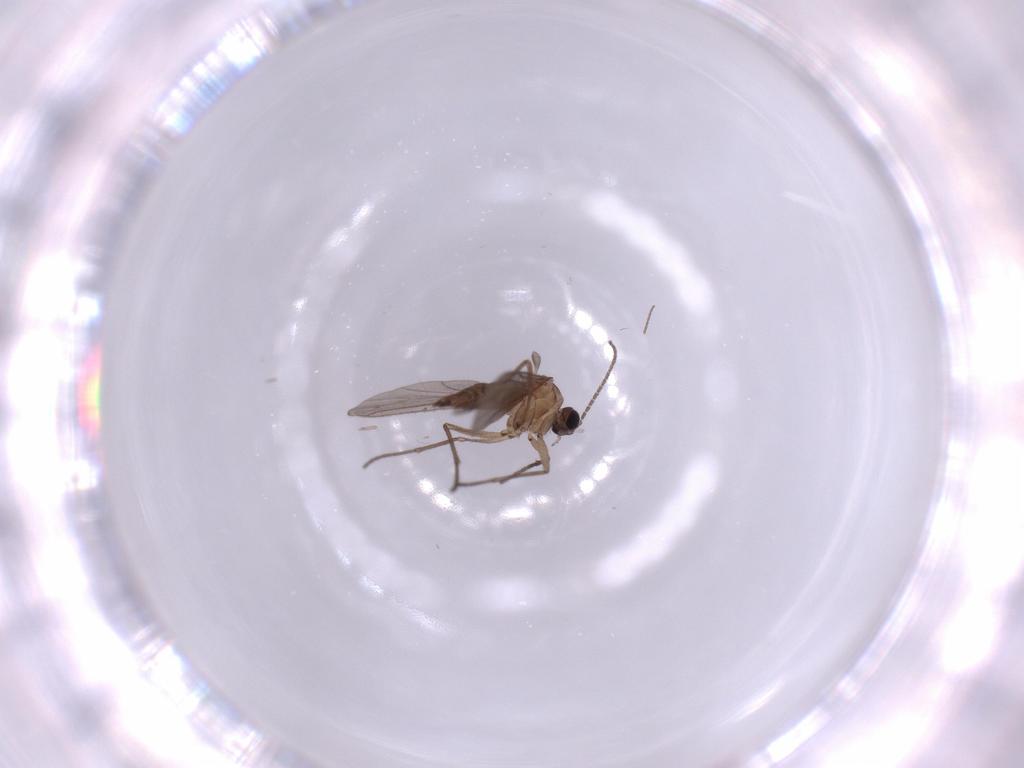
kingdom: Animalia
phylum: Arthropoda
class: Insecta
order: Diptera
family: Cecidomyiidae
